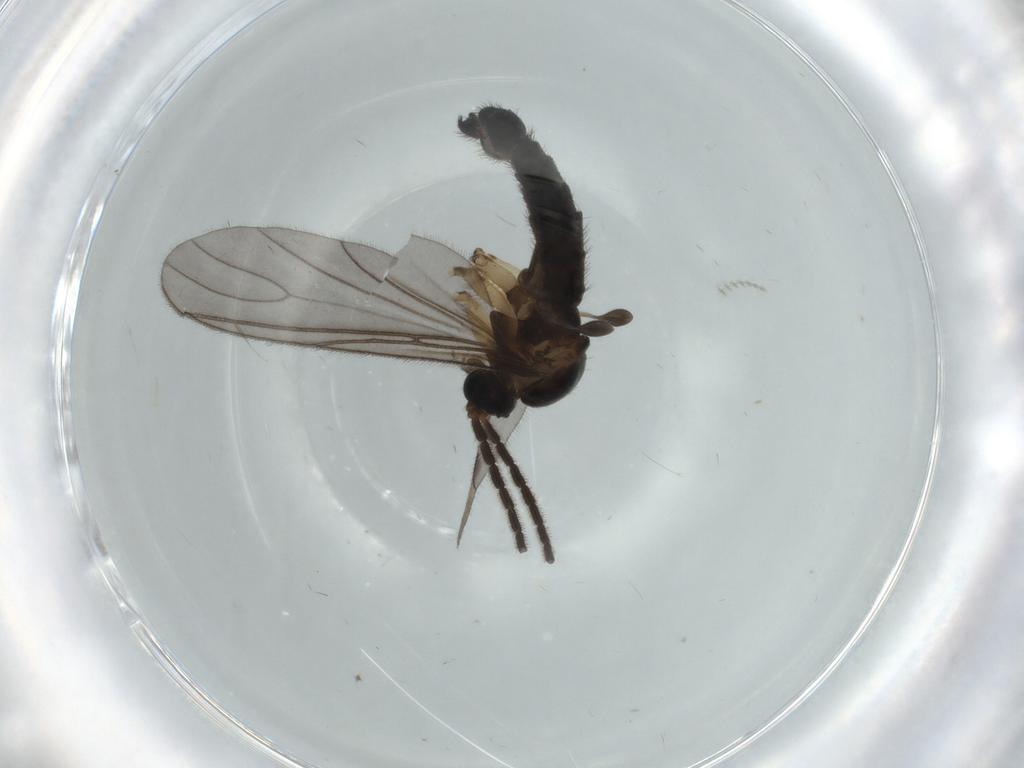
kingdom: Animalia
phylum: Arthropoda
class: Insecta
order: Diptera
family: Sciaridae
